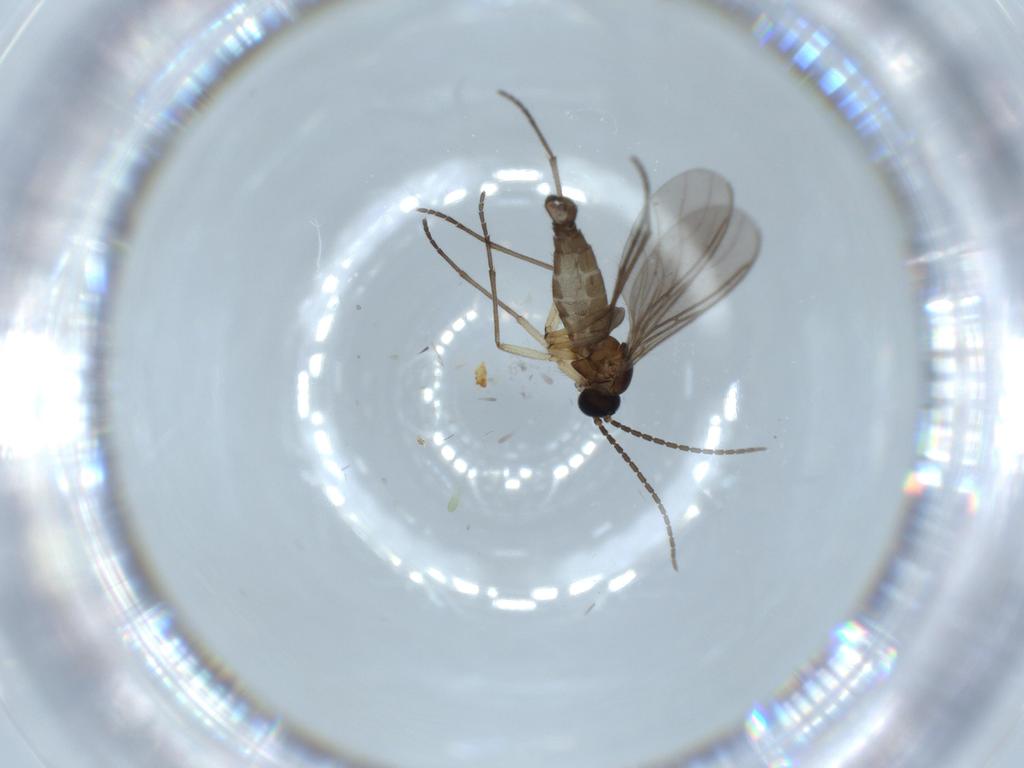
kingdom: Animalia
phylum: Arthropoda
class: Insecta
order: Diptera
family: Sciaridae
